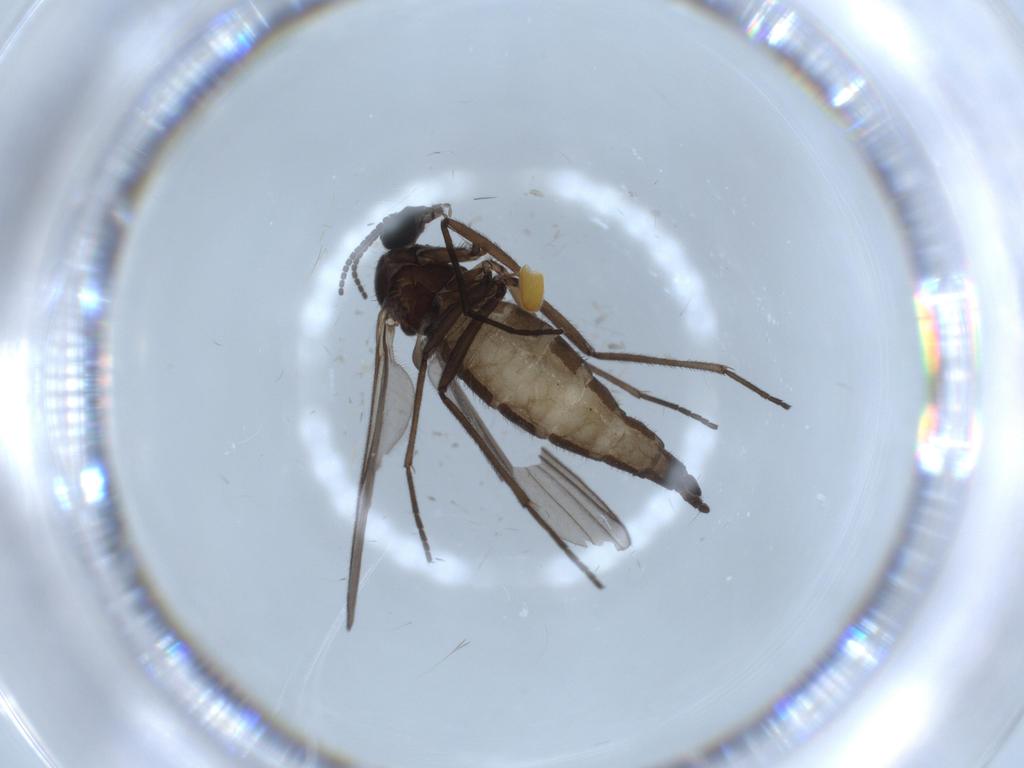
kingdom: Animalia
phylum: Arthropoda
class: Insecta
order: Diptera
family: Sciaridae
